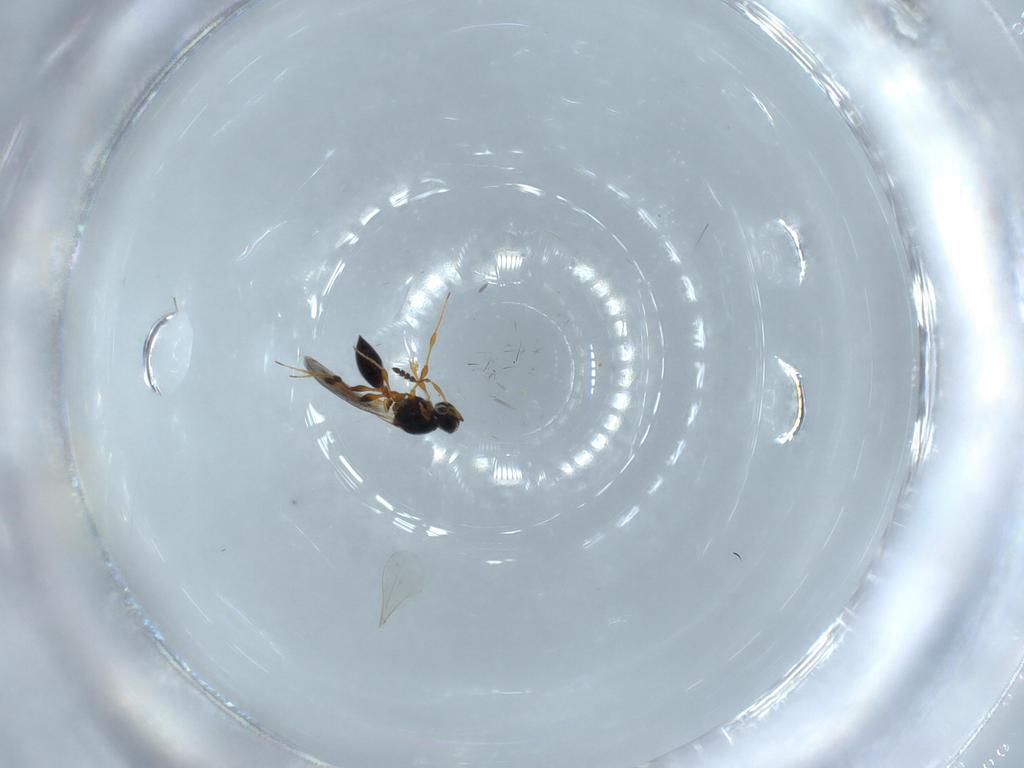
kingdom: Animalia
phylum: Arthropoda
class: Insecta
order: Hymenoptera
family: Platygastridae
